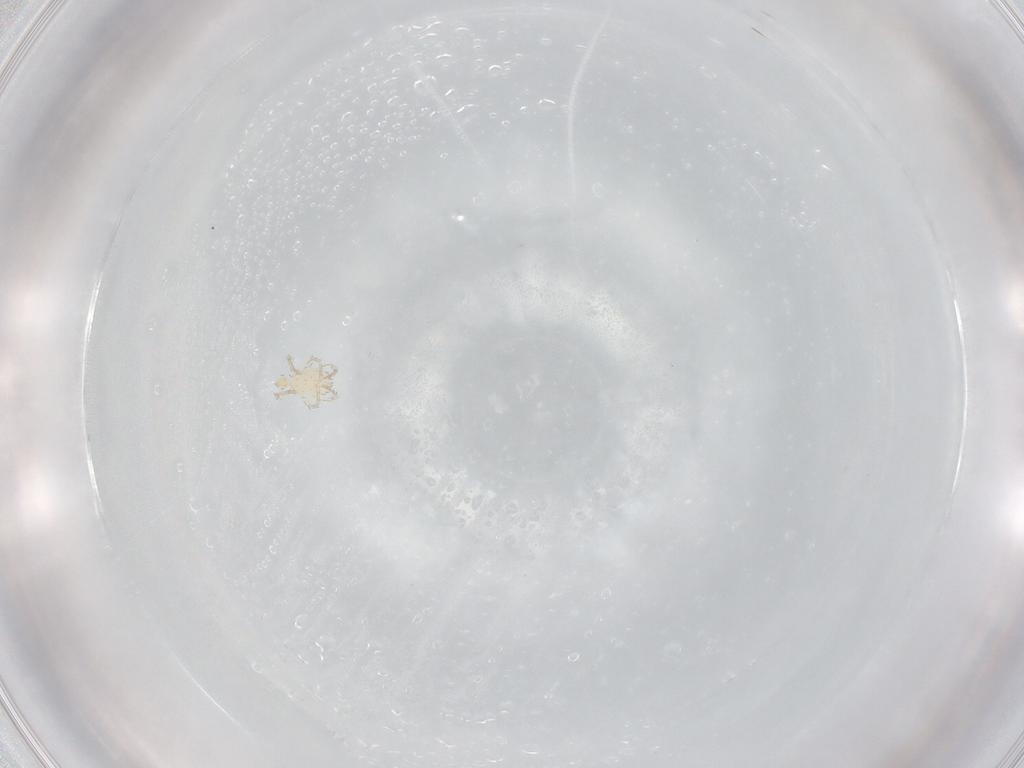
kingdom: Animalia
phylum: Arthropoda
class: Arachnida
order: Trombidiformes
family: Erythraeidae
